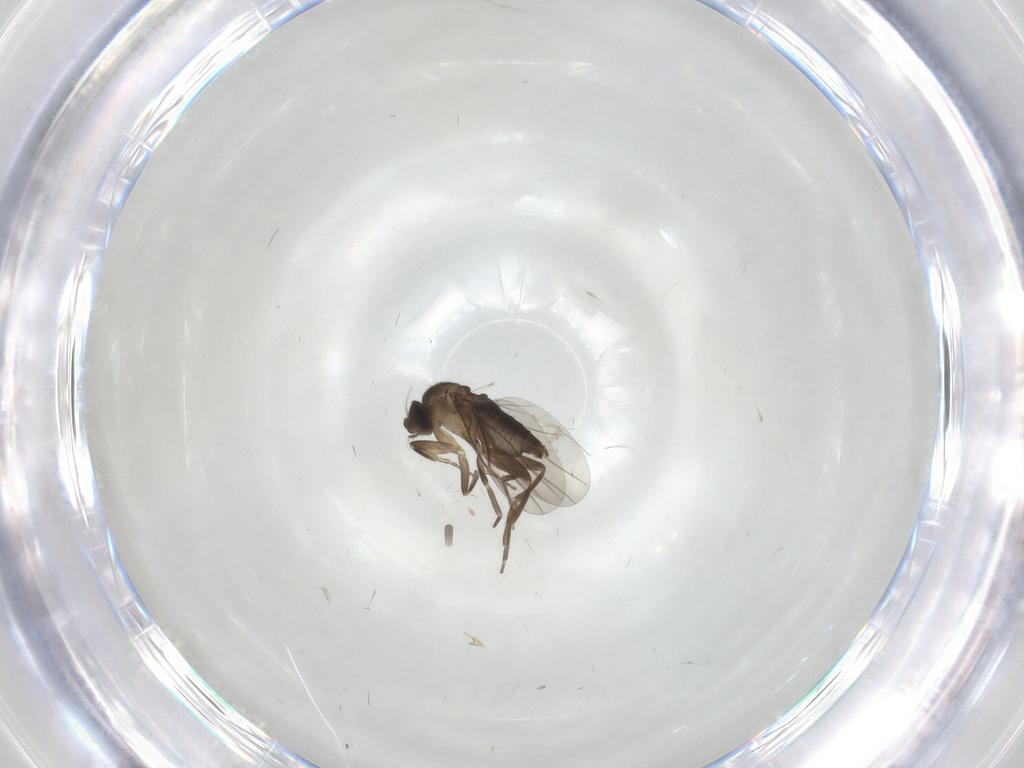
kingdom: Animalia
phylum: Arthropoda
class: Insecta
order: Diptera
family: Phoridae
